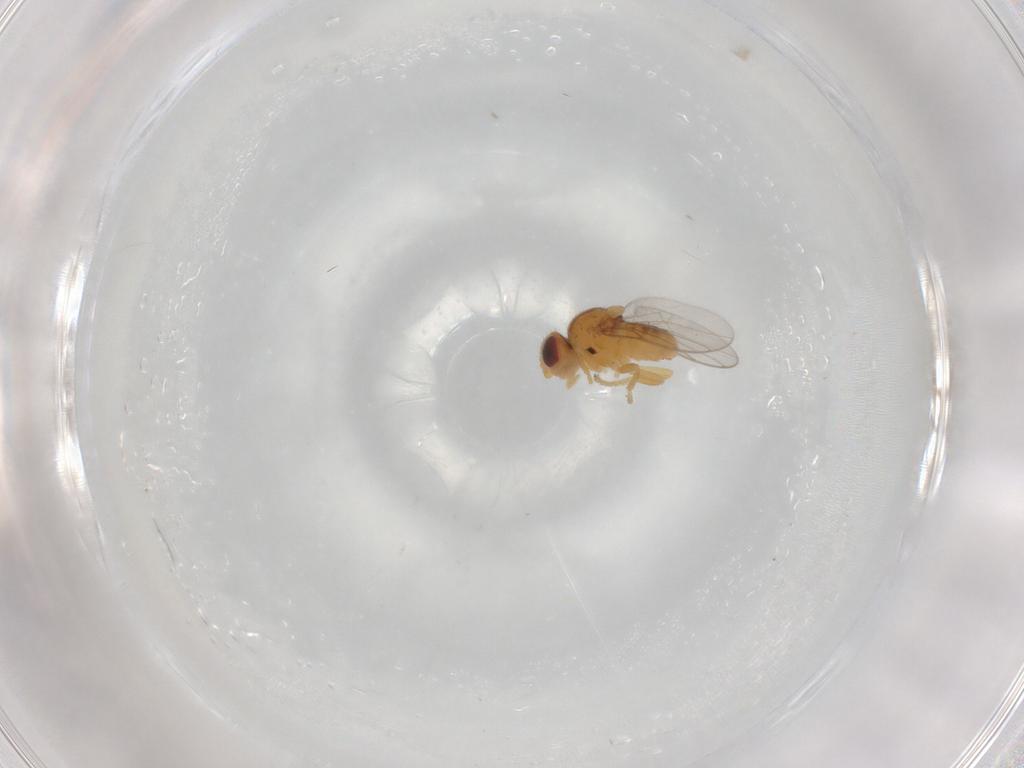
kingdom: Animalia
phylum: Arthropoda
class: Insecta
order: Diptera
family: Chloropidae
